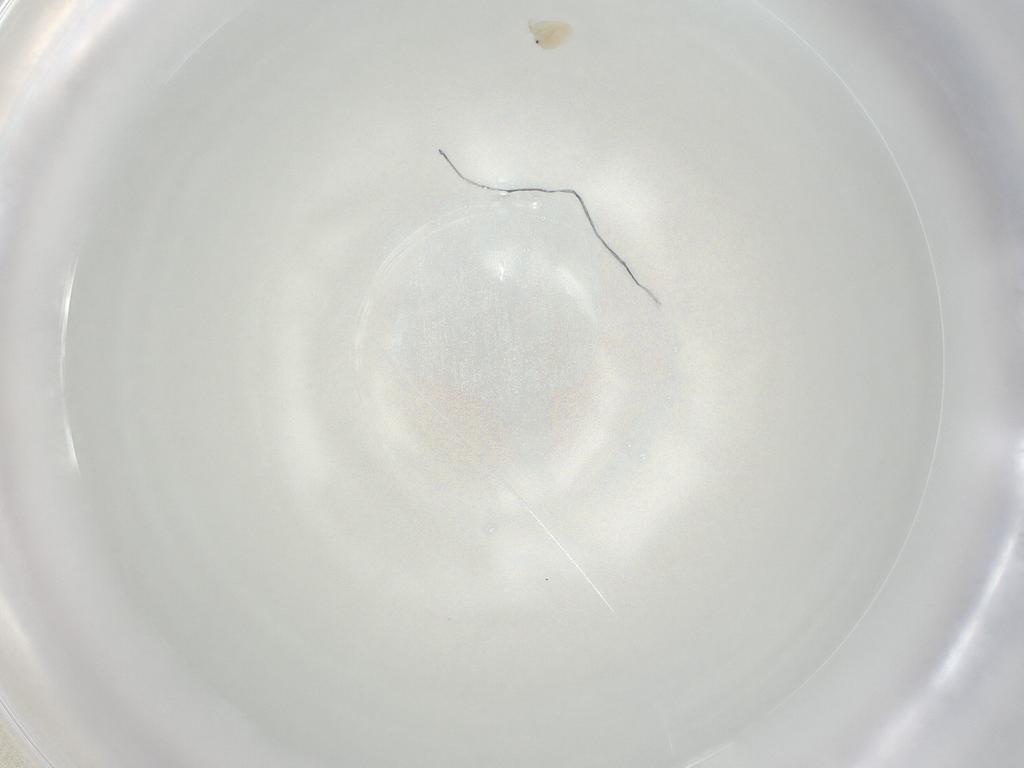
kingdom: Animalia
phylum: Arthropoda
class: Arachnida
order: Trombidiformes
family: Arrenuridae
